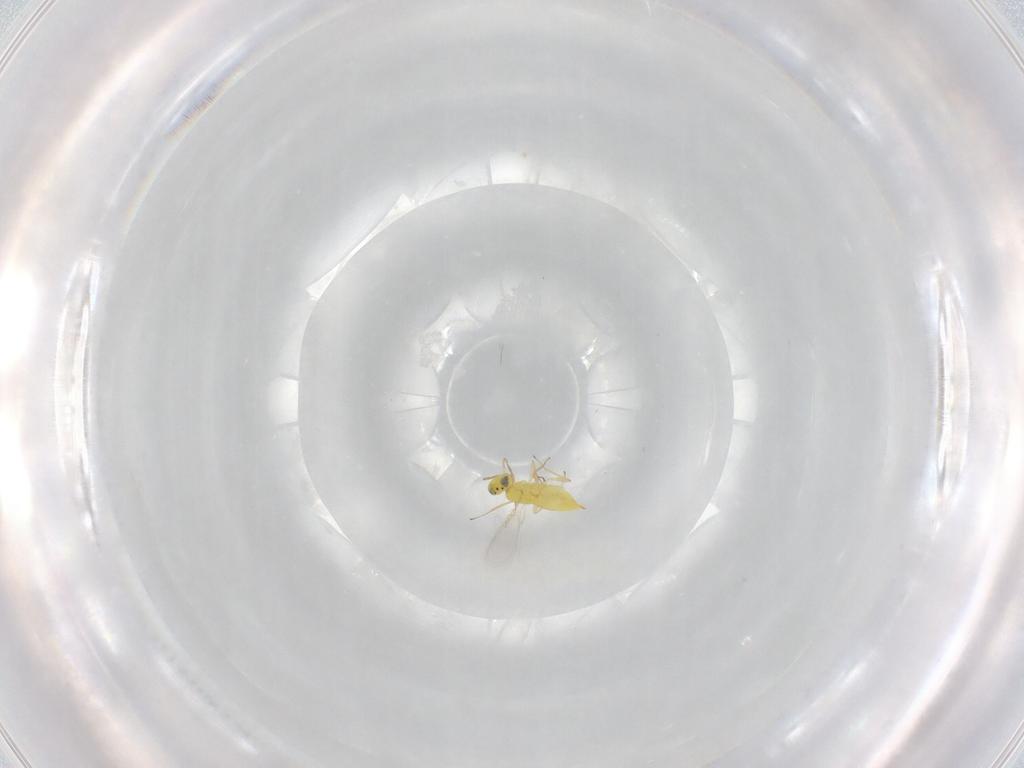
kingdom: Animalia
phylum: Arthropoda
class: Insecta
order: Hymenoptera
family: Aphelinidae
